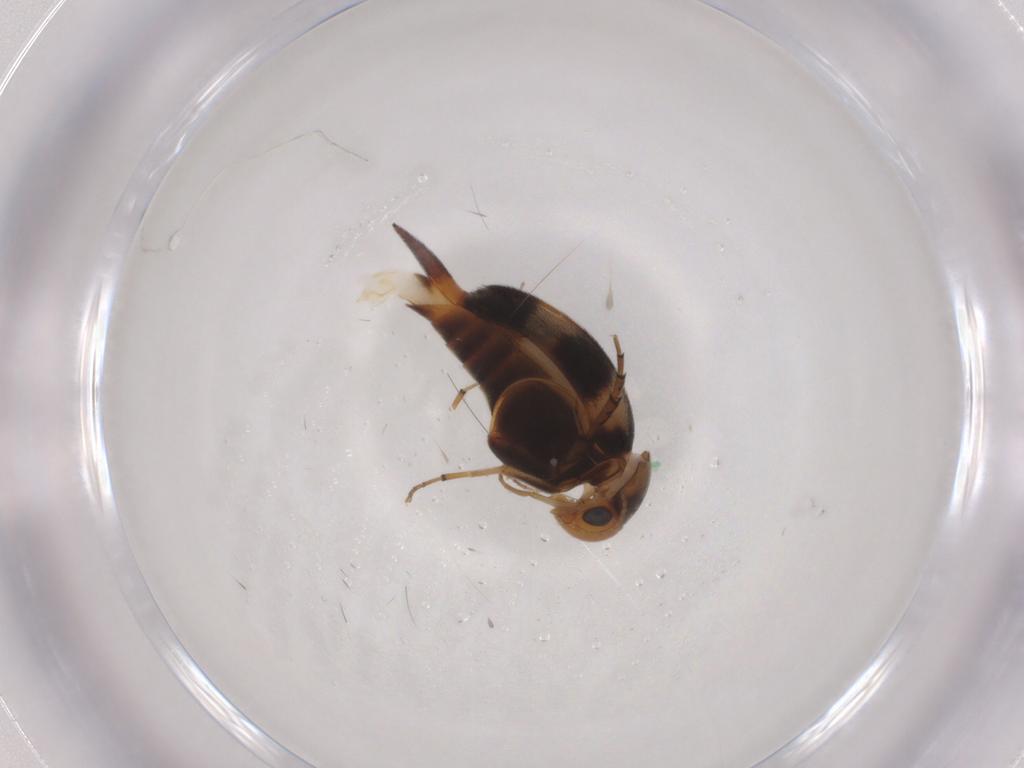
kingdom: Animalia
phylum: Arthropoda
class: Insecta
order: Coleoptera
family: Mordellidae
